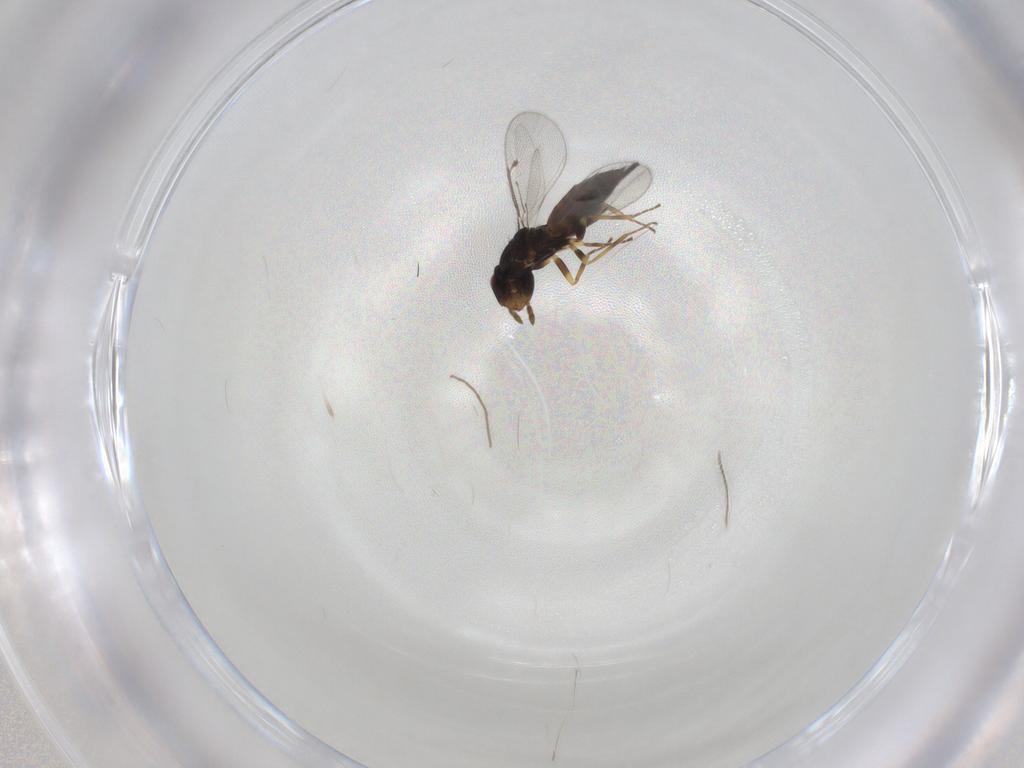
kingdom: Animalia
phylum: Arthropoda
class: Insecta
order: Hymenoptera
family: Eulophidae
